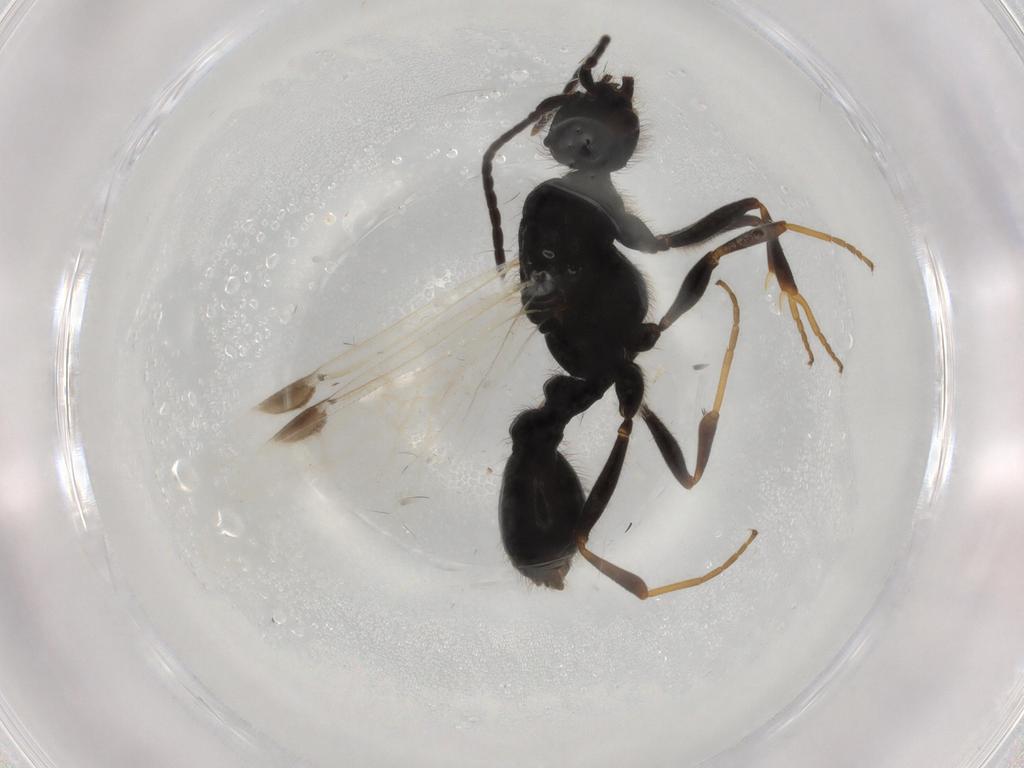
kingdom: Animalia
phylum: Arthropoda
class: Insecta
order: Hymenoptera
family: Formicidae
